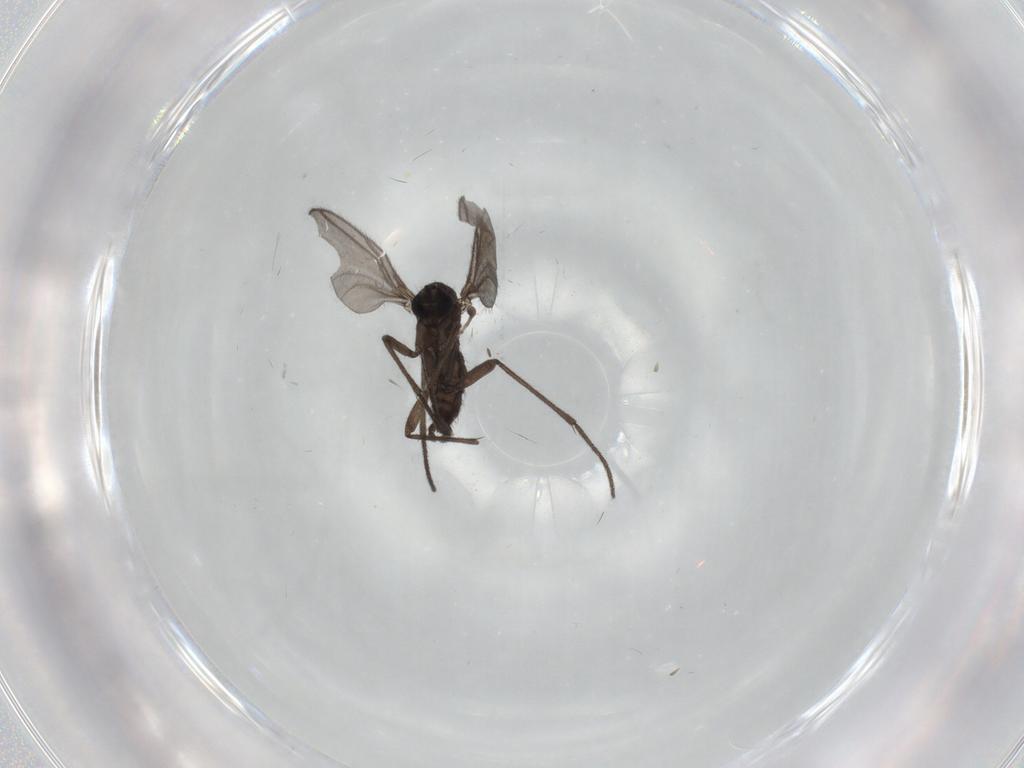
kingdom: Animalia
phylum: Arthropoda
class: Insecta
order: Diptera
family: Sciaridae
